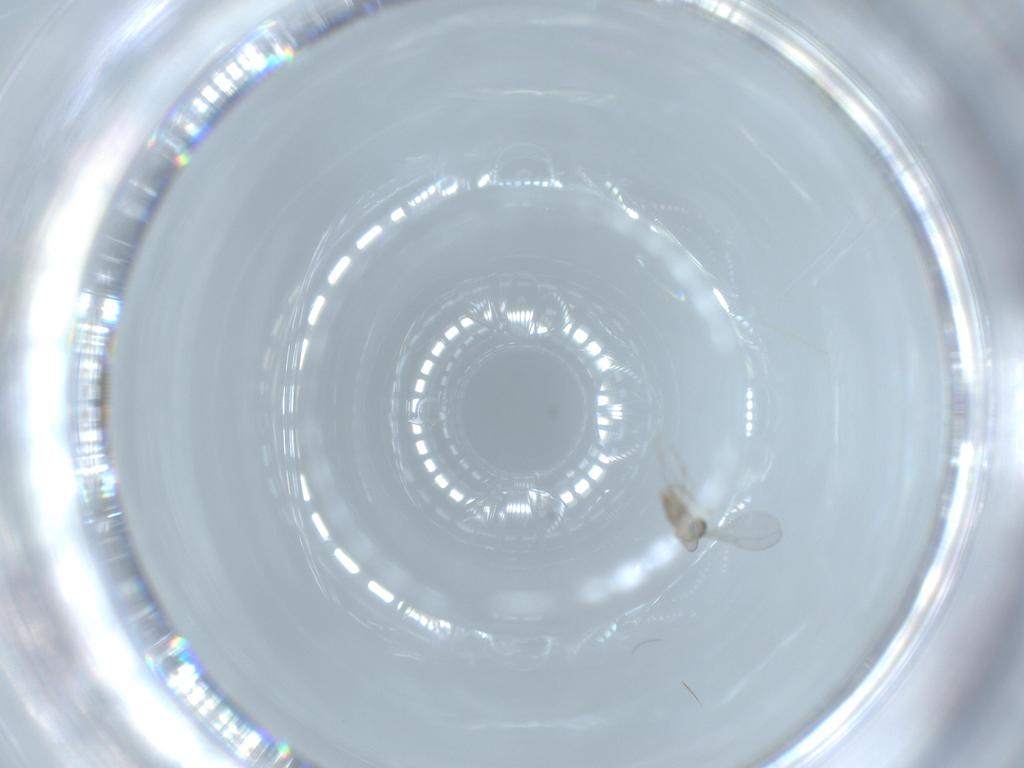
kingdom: Animalia
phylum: Arthropoda
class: Insecta
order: Diptera
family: Cecidomyiidae
